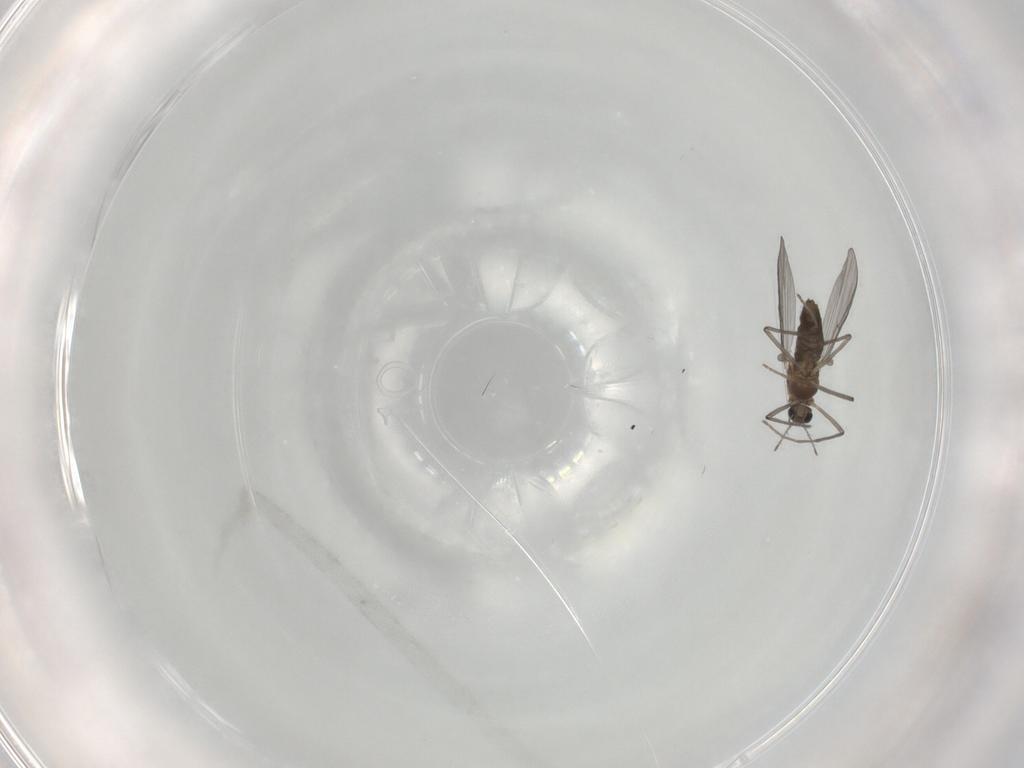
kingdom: Animalia
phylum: Arthropoda
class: Insecta
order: Diptera
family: Chironomidae
